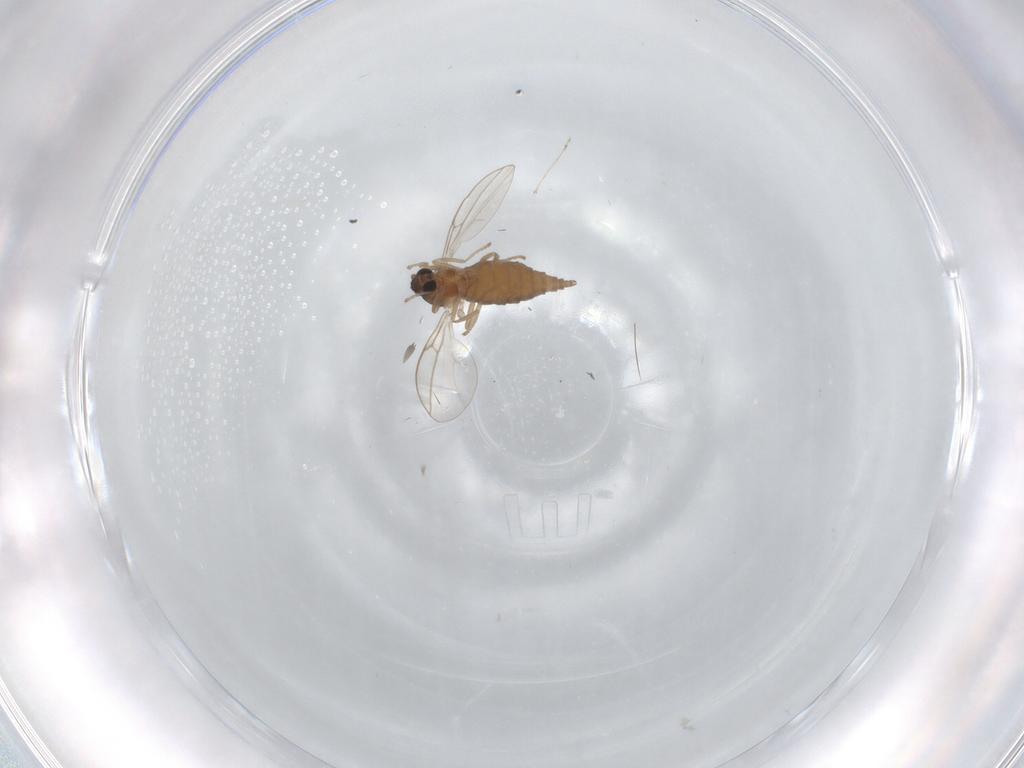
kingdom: Animalia
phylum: Arthropoda
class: Insecta
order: Diptera
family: Cecidomyiidae
